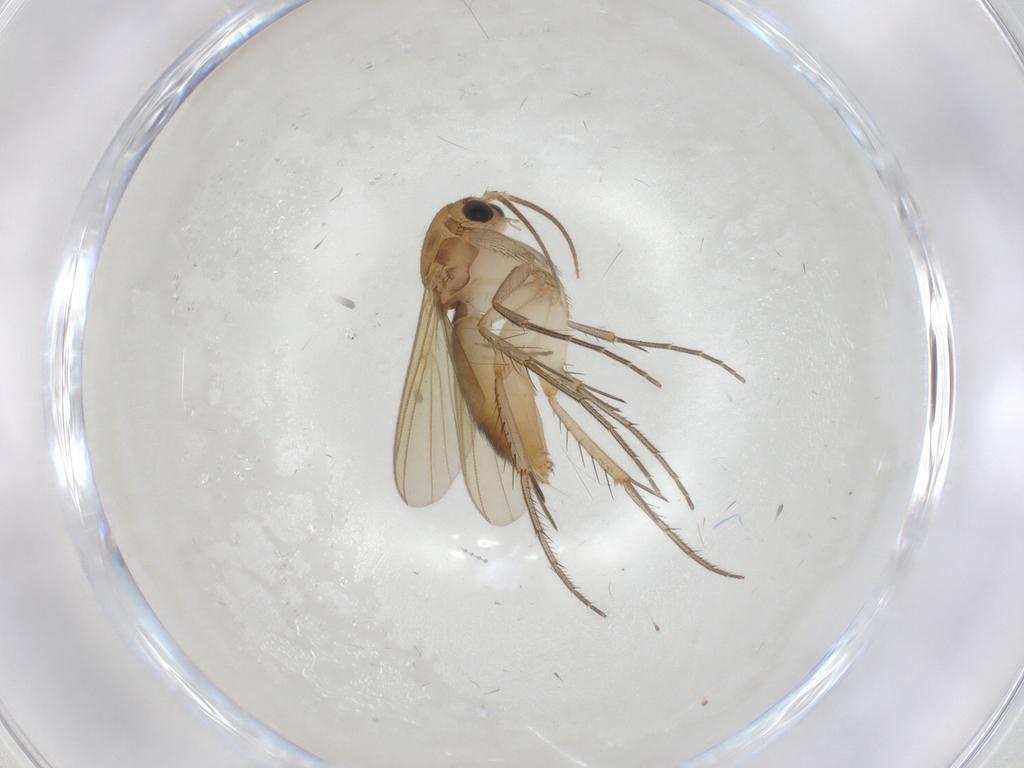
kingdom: Animalia
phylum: Arthropoda
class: Insecta
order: Diptera
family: Mycetophilidae
